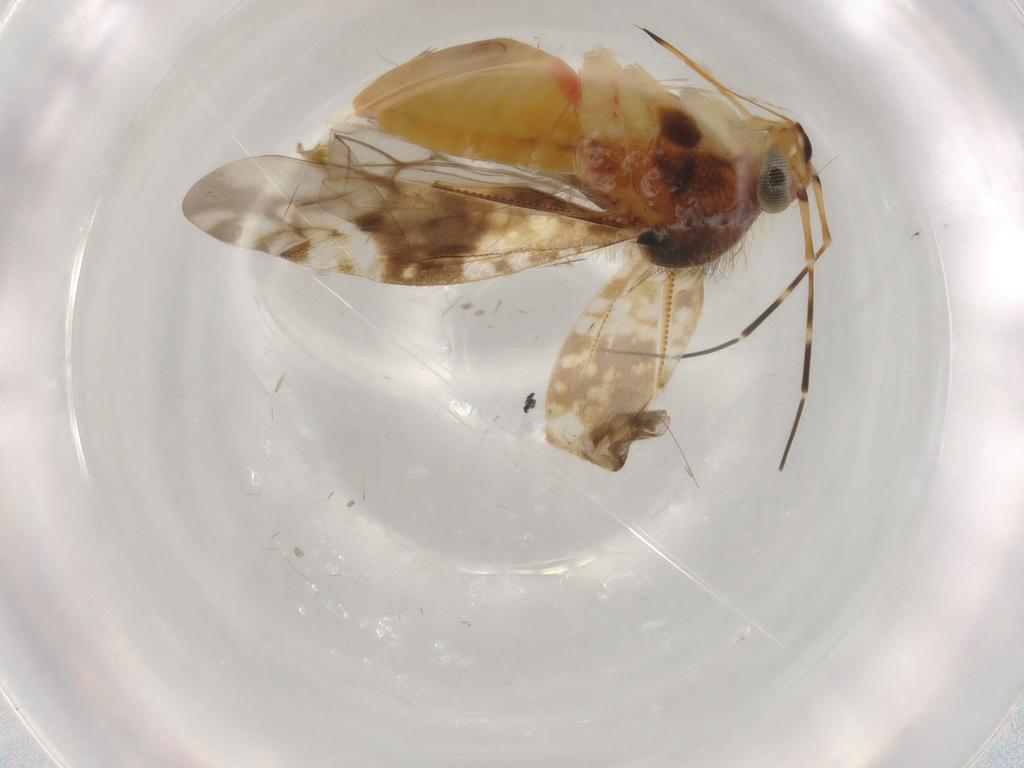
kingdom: Animalia
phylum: Arthropoda
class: Insecta
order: Hemiptera
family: Miridae
